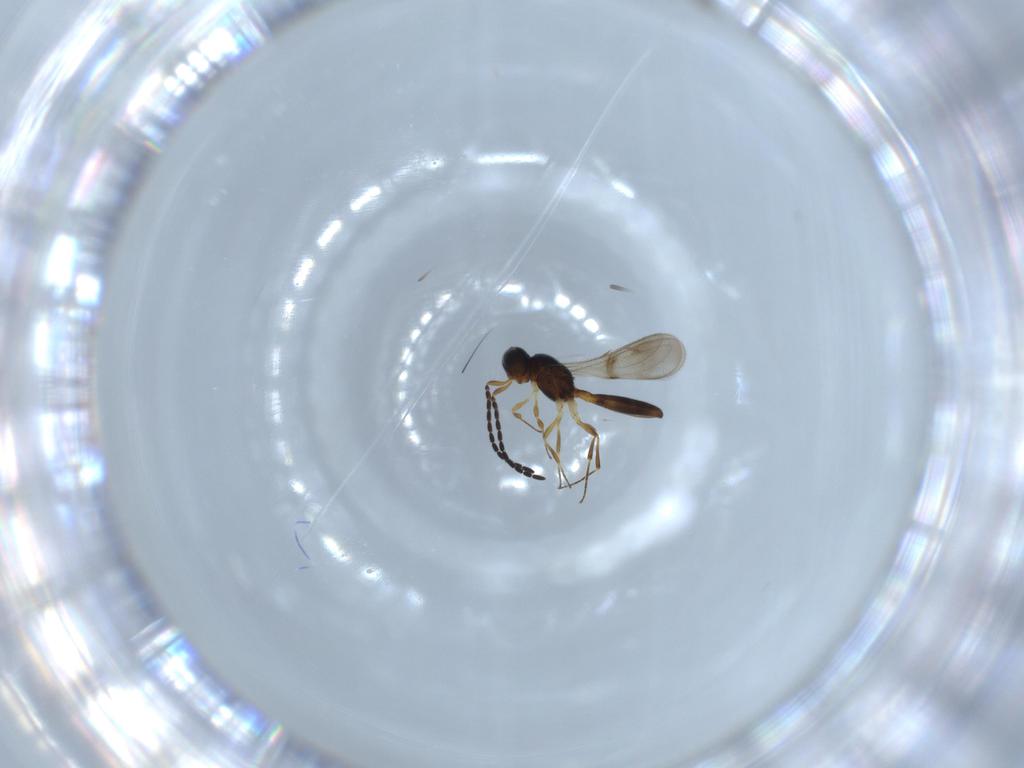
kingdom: Animalia
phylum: Arthropoda
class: Insecta
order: Hymenoptera
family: Scelionidae
